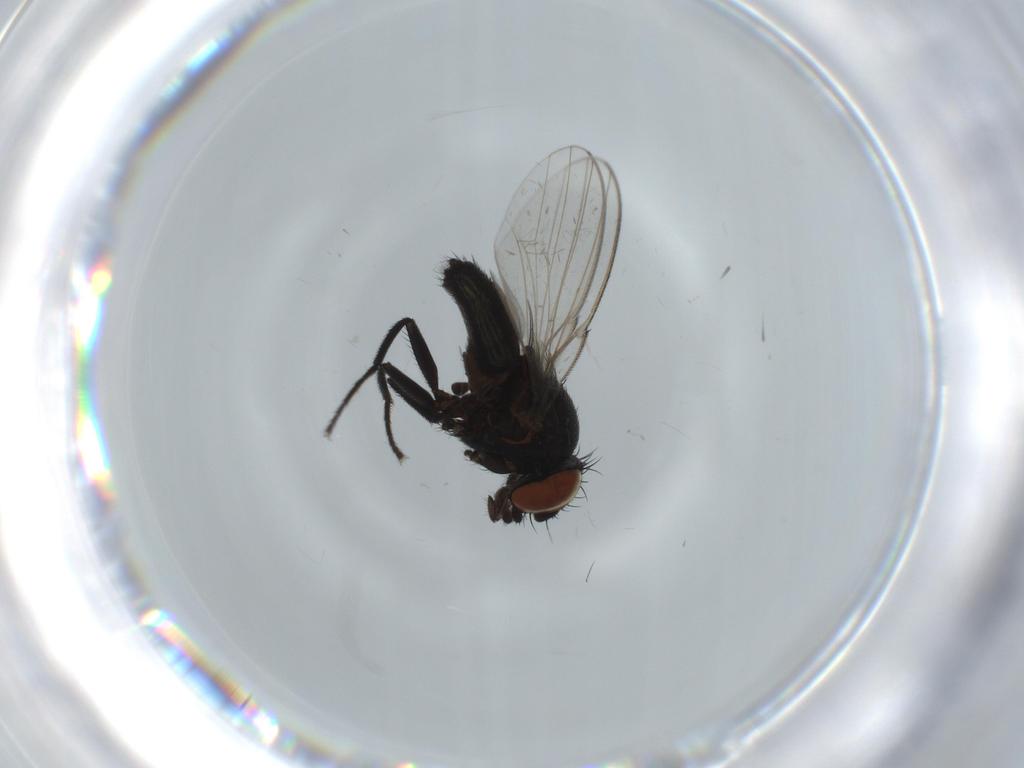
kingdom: Animalia
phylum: Arthropoda
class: Insecta
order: Diptera
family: Milichiidae
